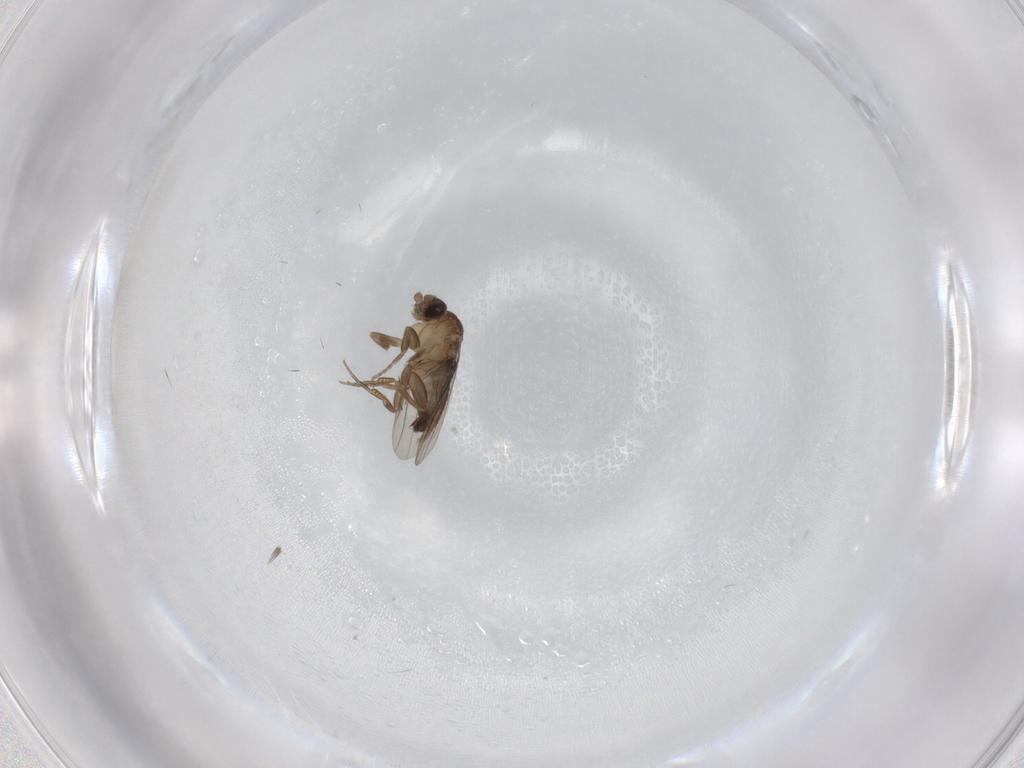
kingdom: Animalia
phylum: Arthropoda
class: Insecta
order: Diptera
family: Phoridae
